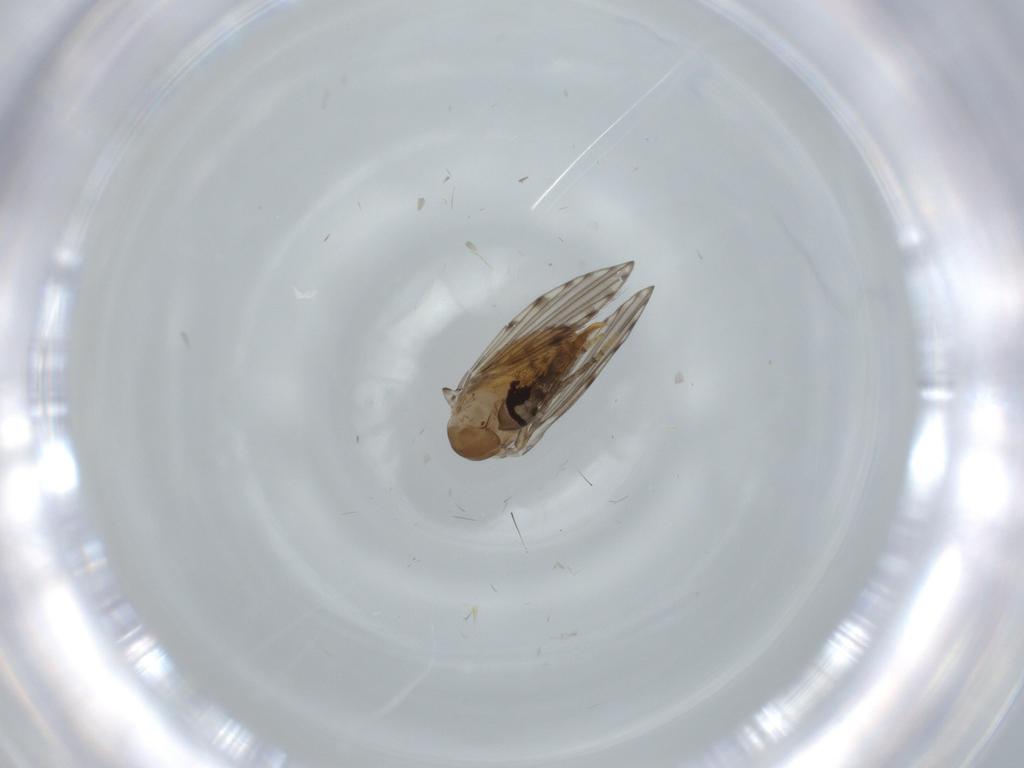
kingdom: Animalia
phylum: Arthropoda
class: Insecta
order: Diptera
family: Psychodidae
